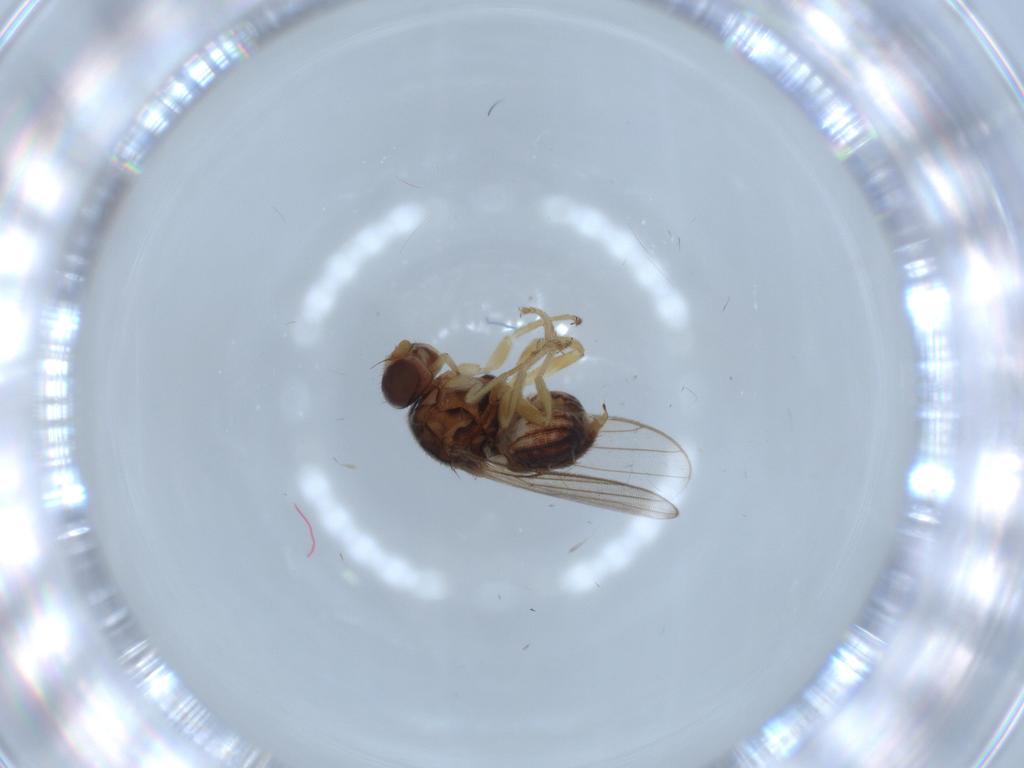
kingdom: Animalia
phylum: Arthropoda
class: Insecta
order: Diptera
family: Chloropidae
